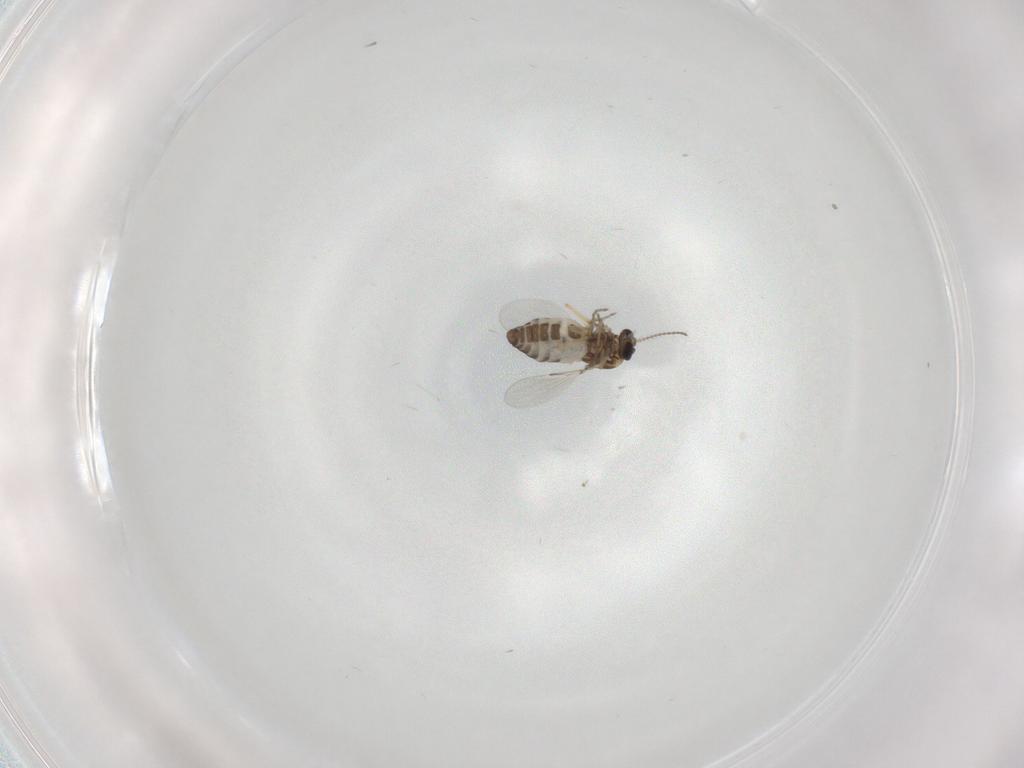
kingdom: Animalia
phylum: Arthropoda
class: Insecta
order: Diptera
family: Ceratopogonidae
